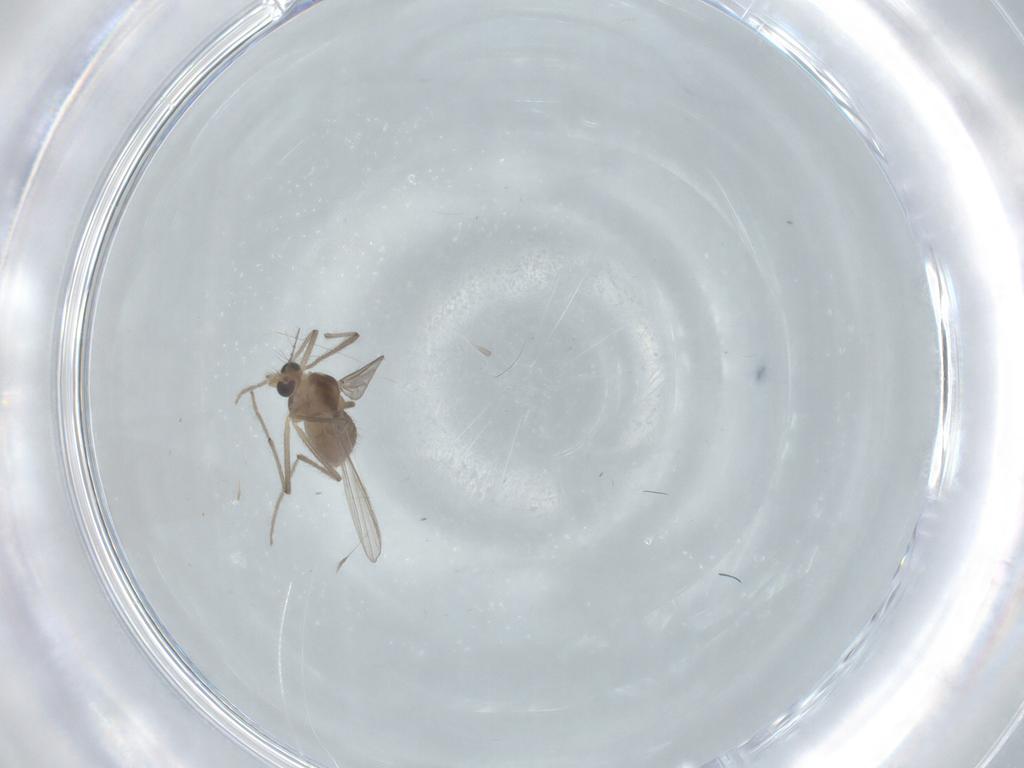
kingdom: Animalia
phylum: Arthropoda
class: Insecta
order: Diptera
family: Chironomidae
